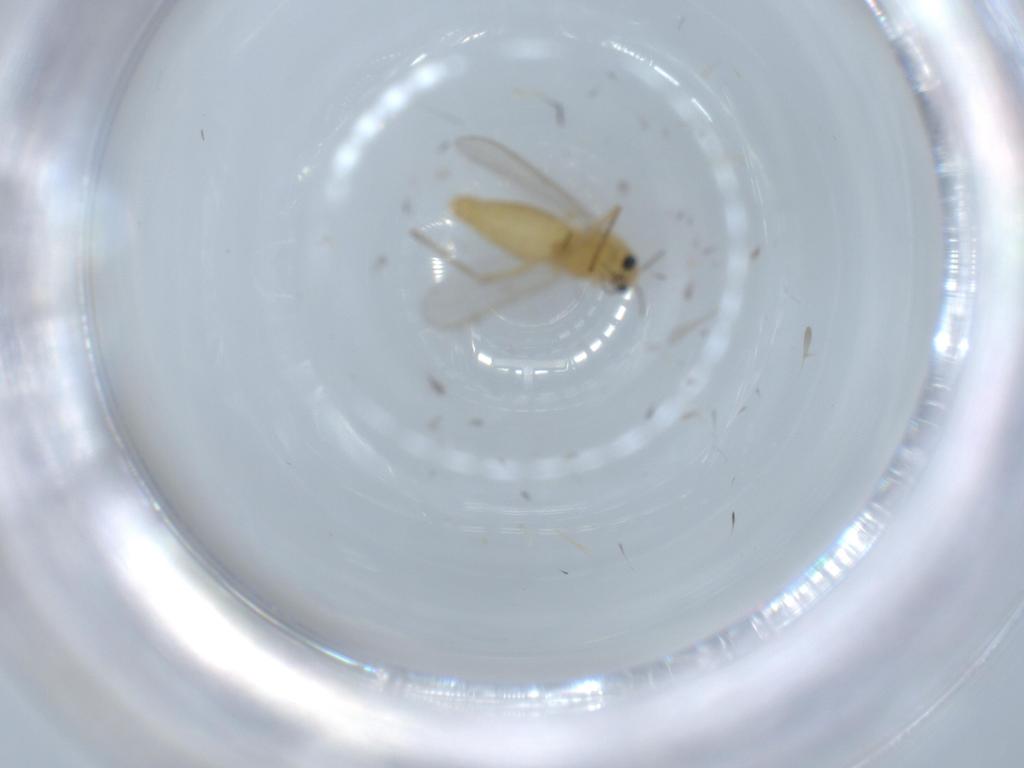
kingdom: Animalia
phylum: Arthropoda
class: Insecta
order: Diptera
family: Chironomidae
